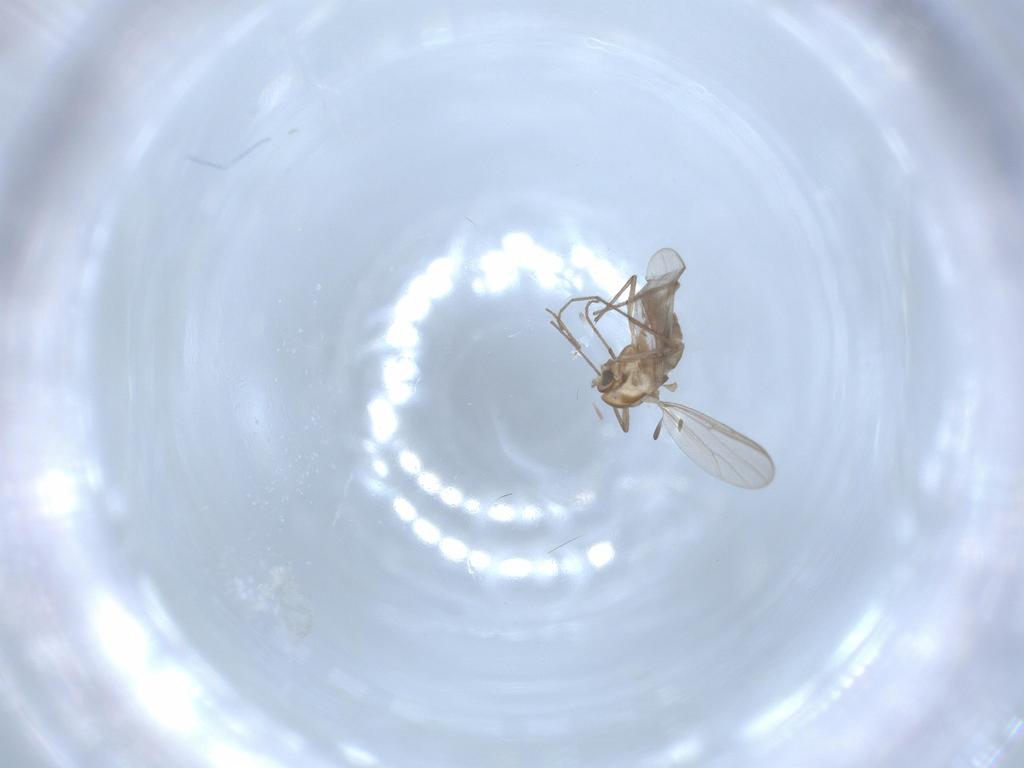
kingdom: Animalia
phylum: Arthropoda
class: Insecta
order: Diptera
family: Chironomidae
